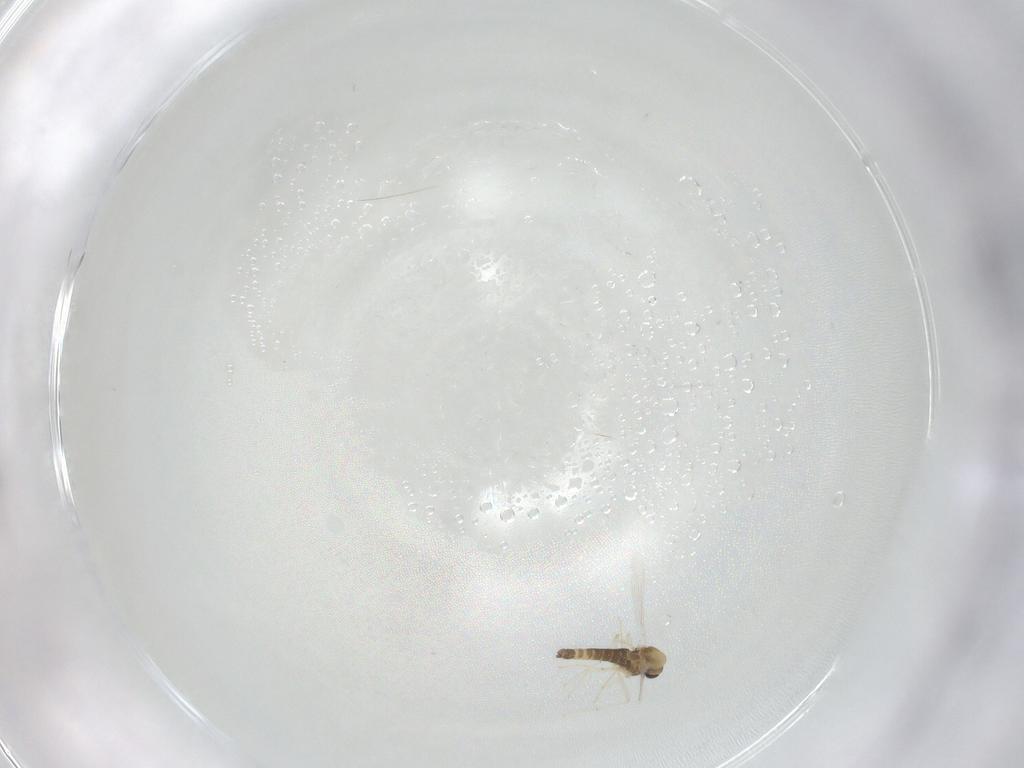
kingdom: Animalia
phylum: Arthropoda
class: Insecta
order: Diptera
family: Chironomidae
